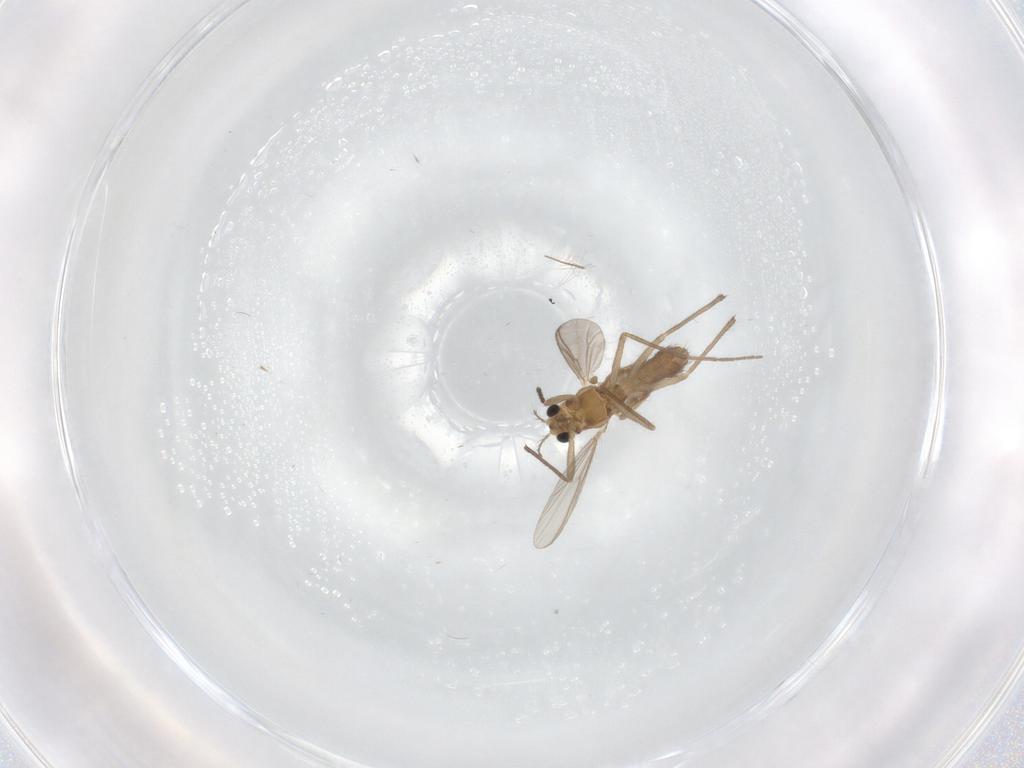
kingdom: Animalia
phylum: Arthropoda
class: Insecta
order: Diptera
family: Chironomidae
